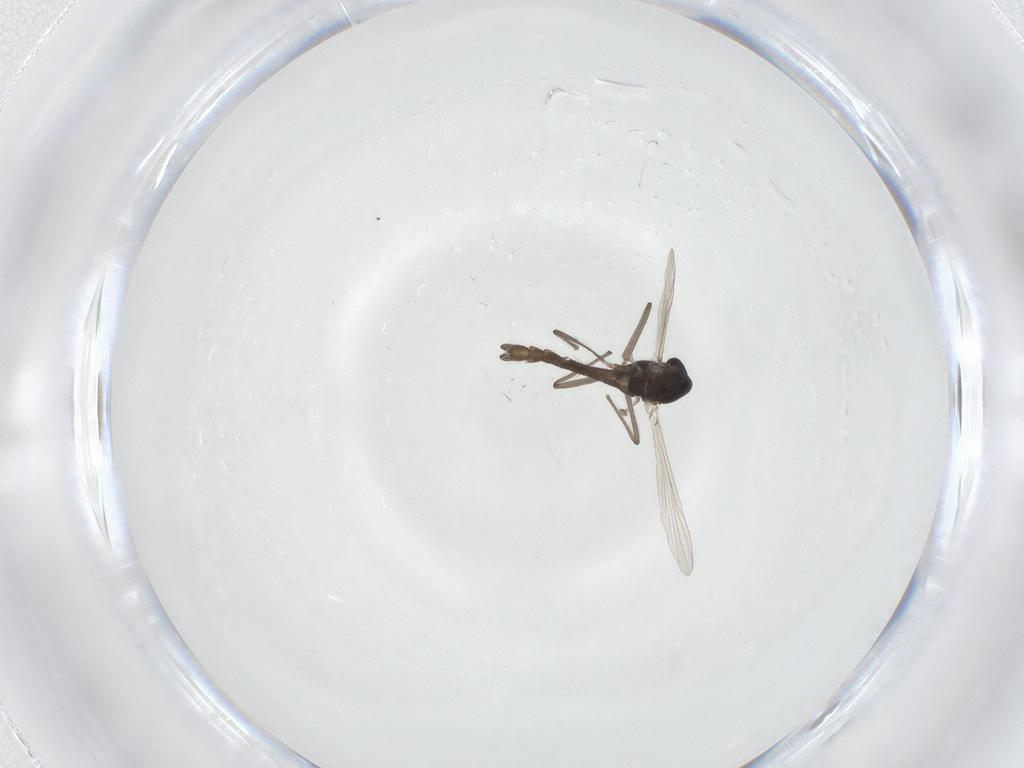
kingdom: Animalia
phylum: Arthropoda
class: Insecta
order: Diptera
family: Chironomidae
